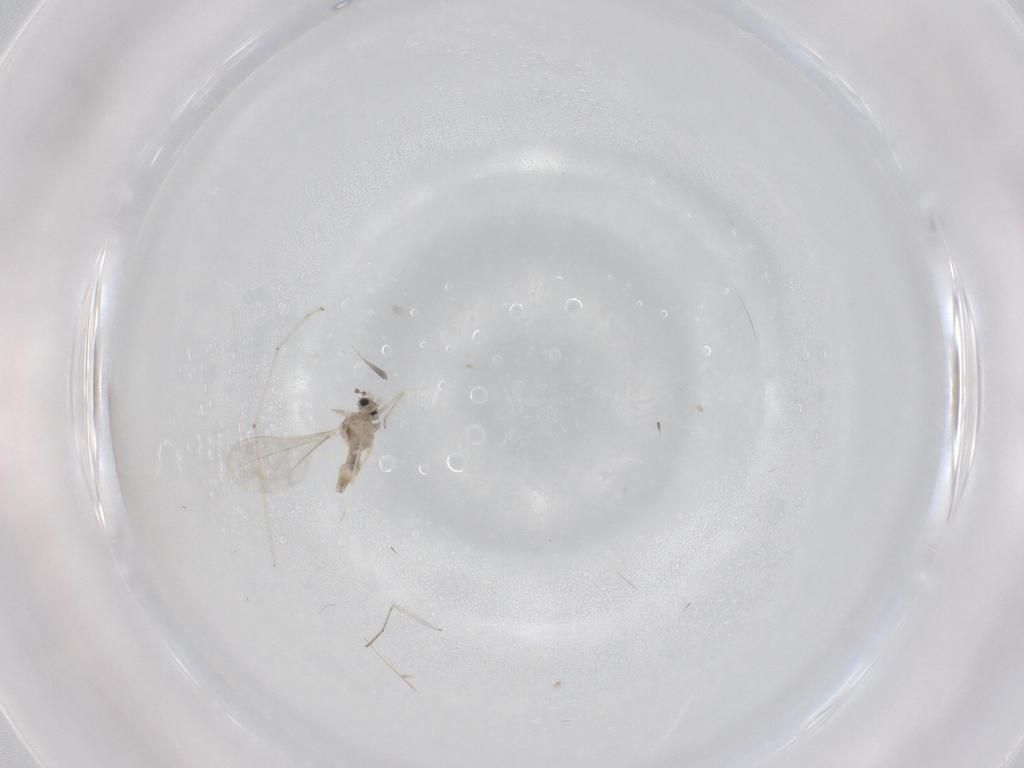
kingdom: Animalia
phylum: Arthropoda
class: Insecta
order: Diptera
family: Cecidomyiidae
